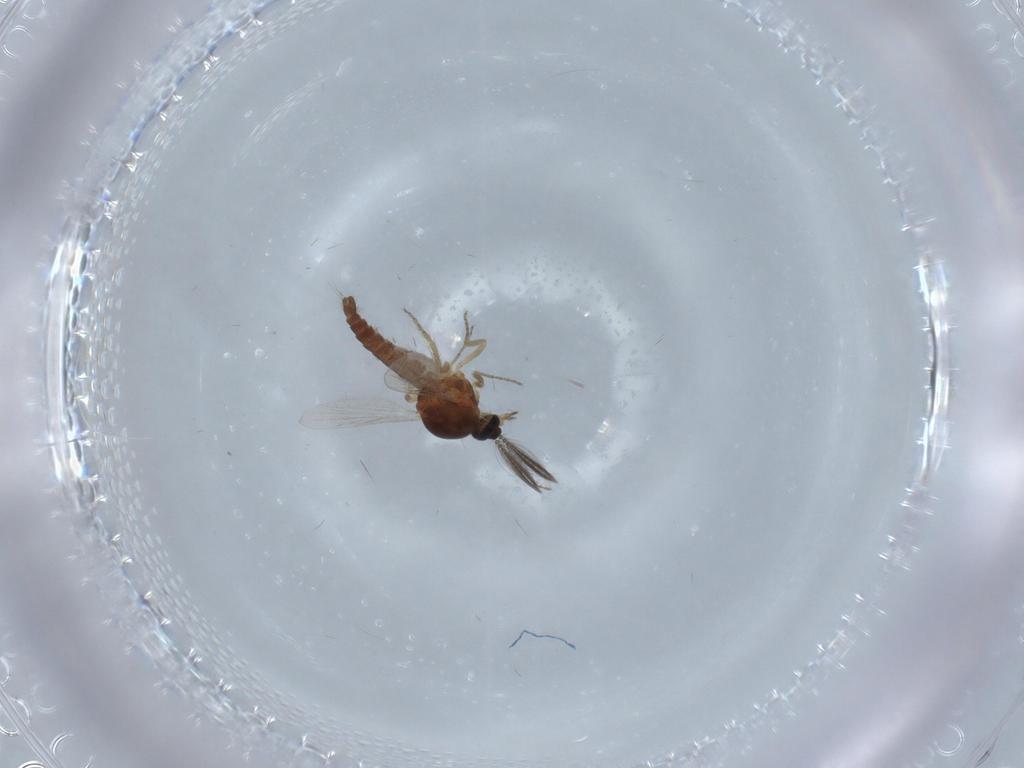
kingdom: Animalia
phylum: Arthropoda
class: Insecta
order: Diptera
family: Ceratopogonidae
